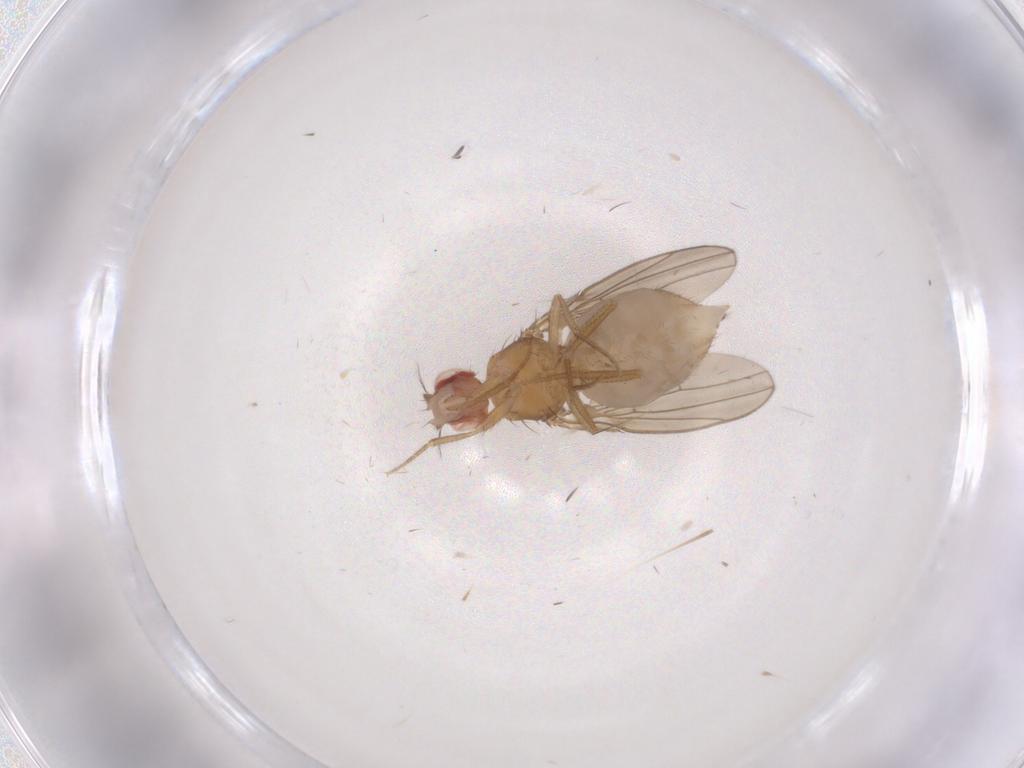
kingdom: Animalia
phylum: Arthropoda
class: Insecta
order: Diptera
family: Drosophilidae
